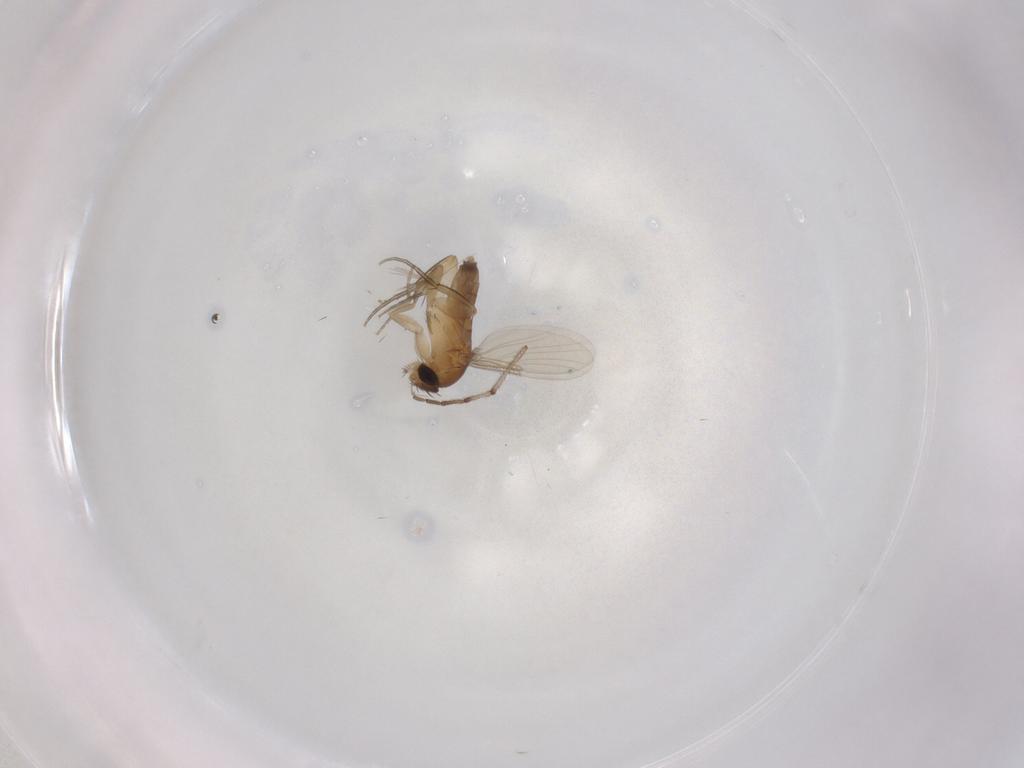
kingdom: Animalia
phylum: Arthropoda
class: Insecta
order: Diptera
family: Phoridae
